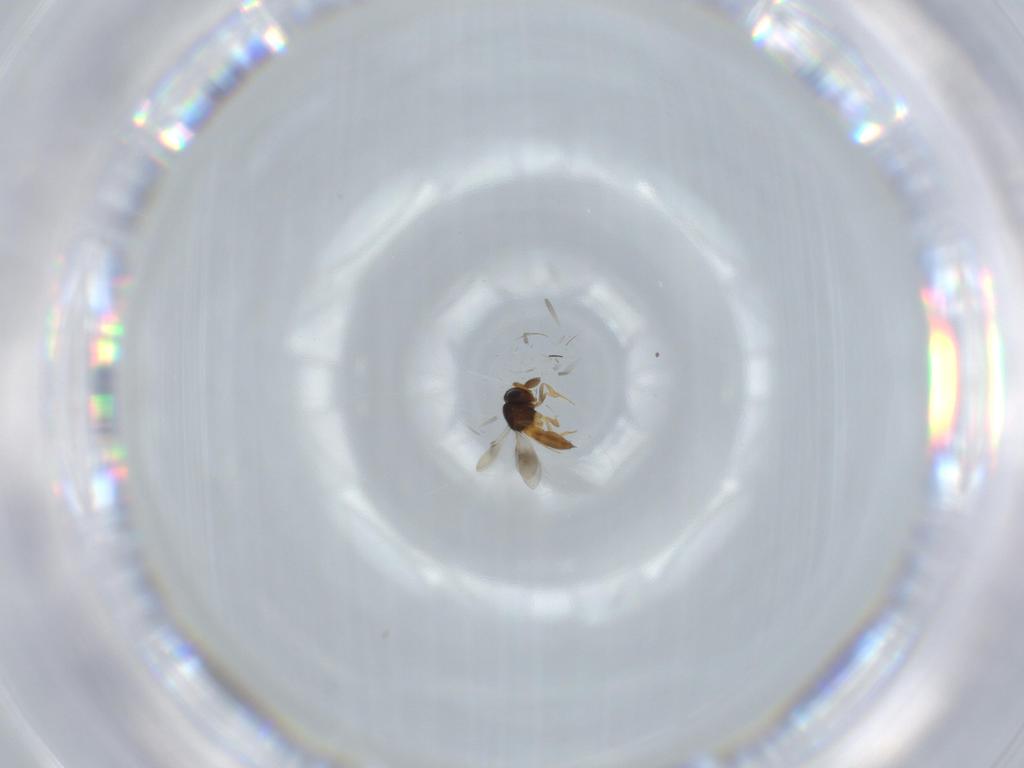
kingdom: Animalia
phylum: Arthropoda
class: Insecta
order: Hymenoptera
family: Scelionidae
